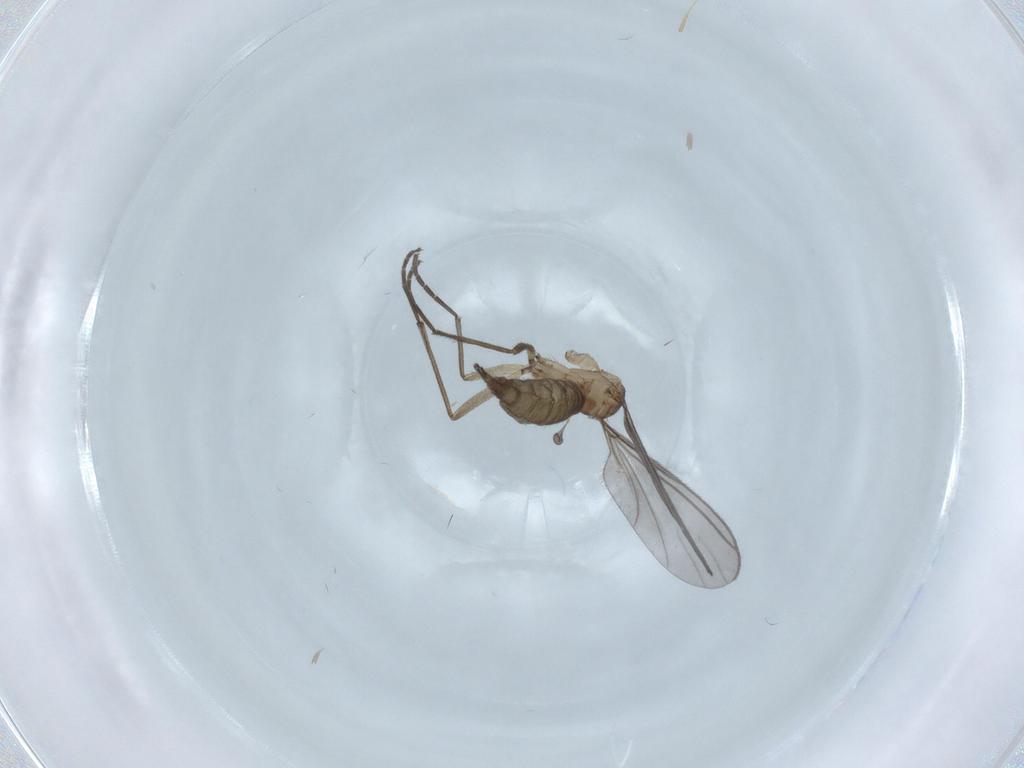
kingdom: Animalia
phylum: Arthropoda
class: Insecta
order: Diptera
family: Sciaridae
